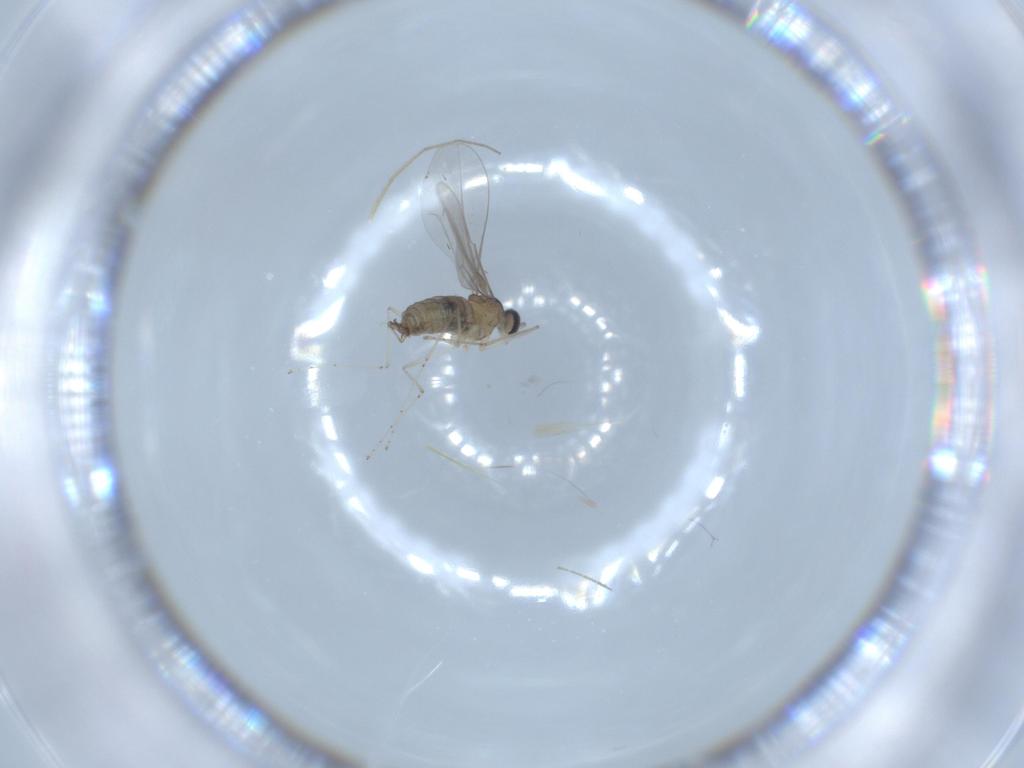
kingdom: Animalia
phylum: Arthropoda
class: Insecta
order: Diptera
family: Cecidomyiidae
